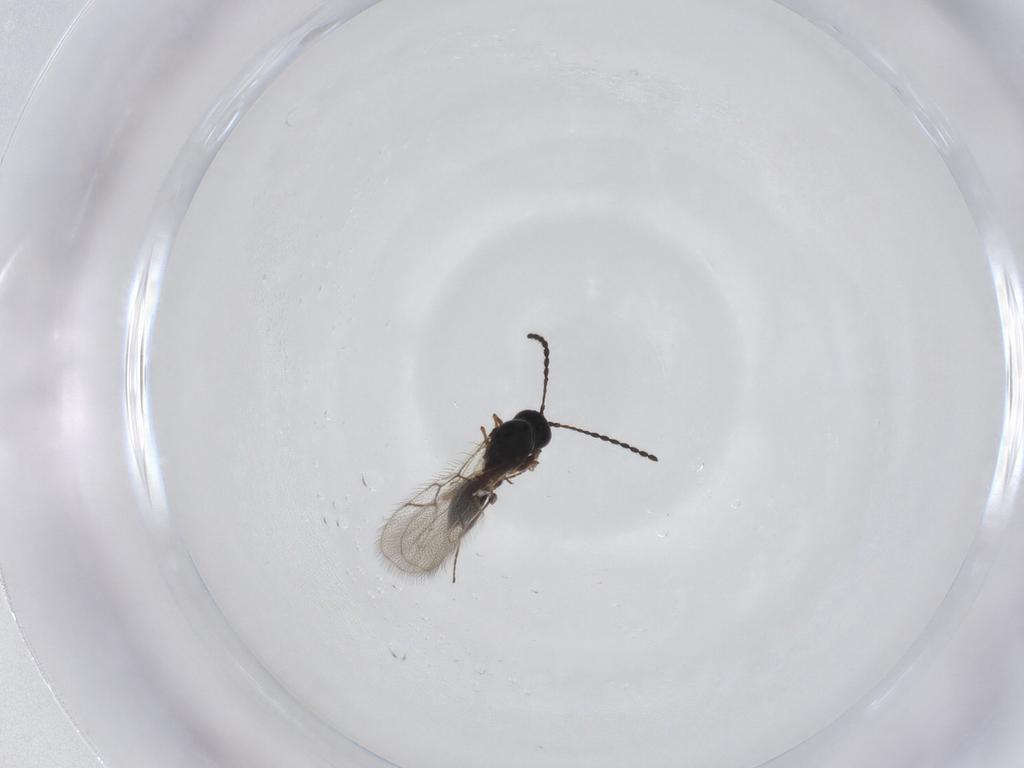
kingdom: Animalia
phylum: Arthropoda
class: Insecta
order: Hymenoptera
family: Figitidae
